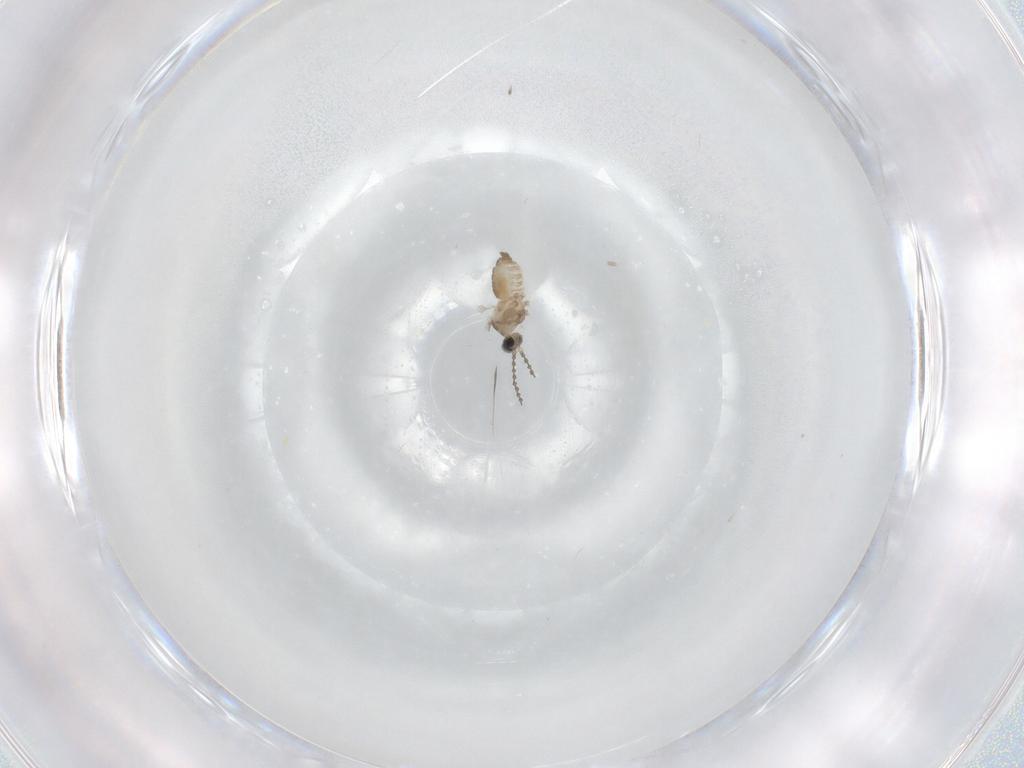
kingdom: Animalia
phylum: Arthropoda
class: Insecta
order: Diptera
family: Cecidomyiidae
